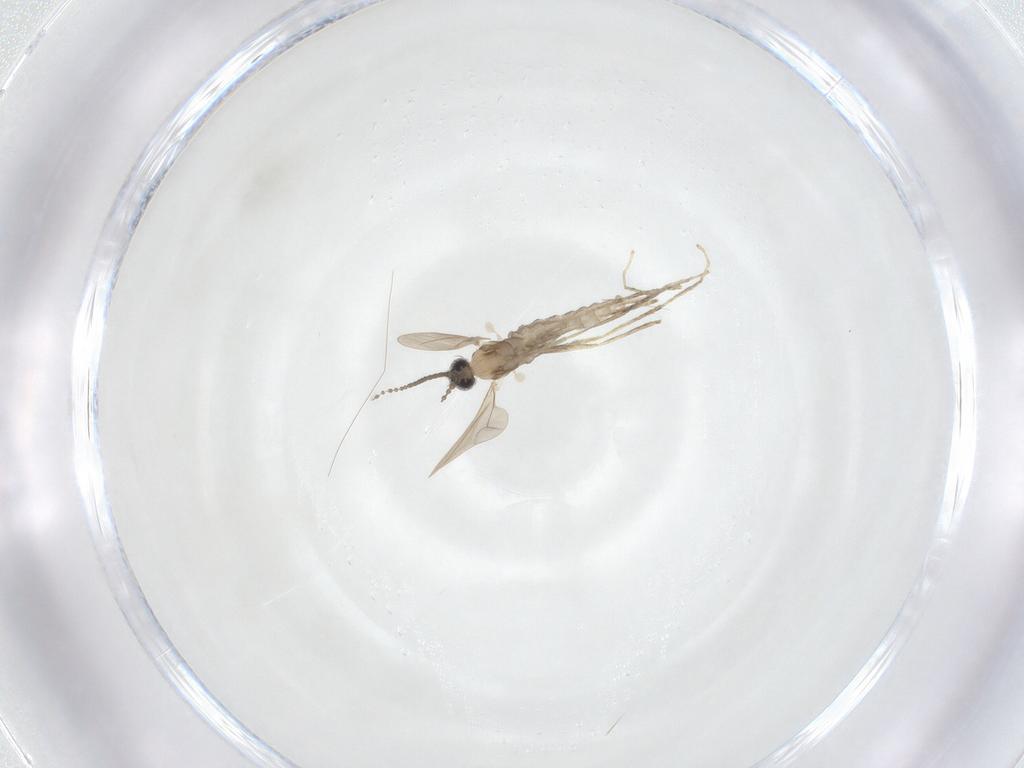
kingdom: Animalia
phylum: Arthropoda
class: Insecta
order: Diptera
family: Cecidomyiidae
